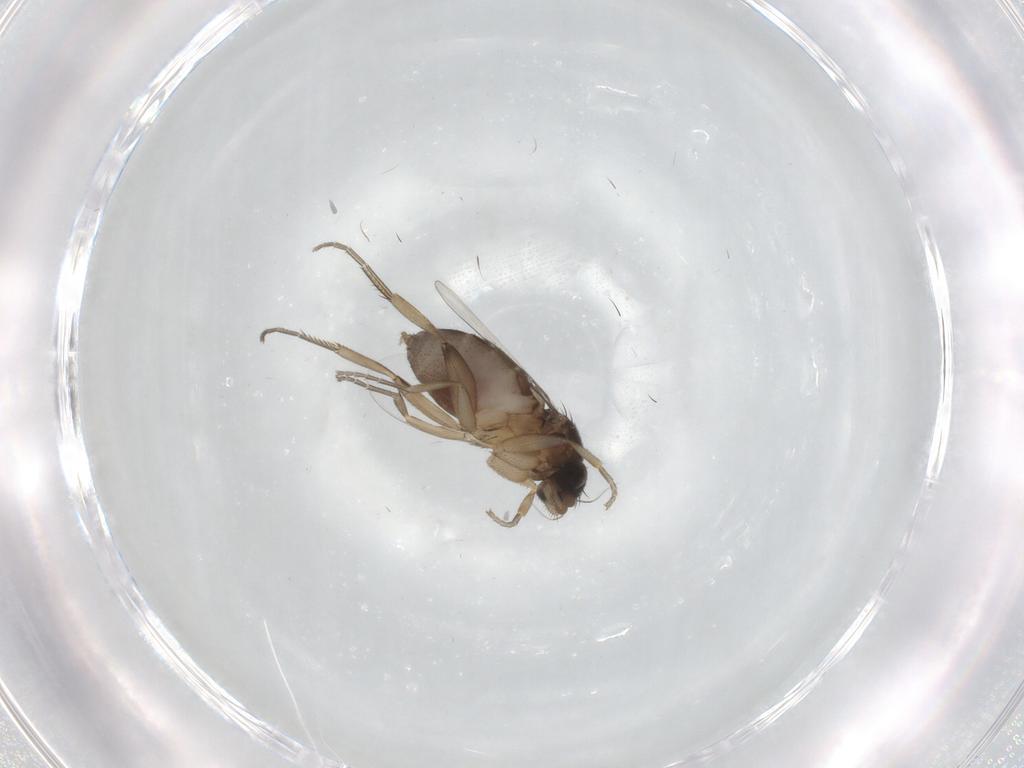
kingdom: Animalia
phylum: Arthropoda
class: Insecta
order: Diptera
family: Phoridae
